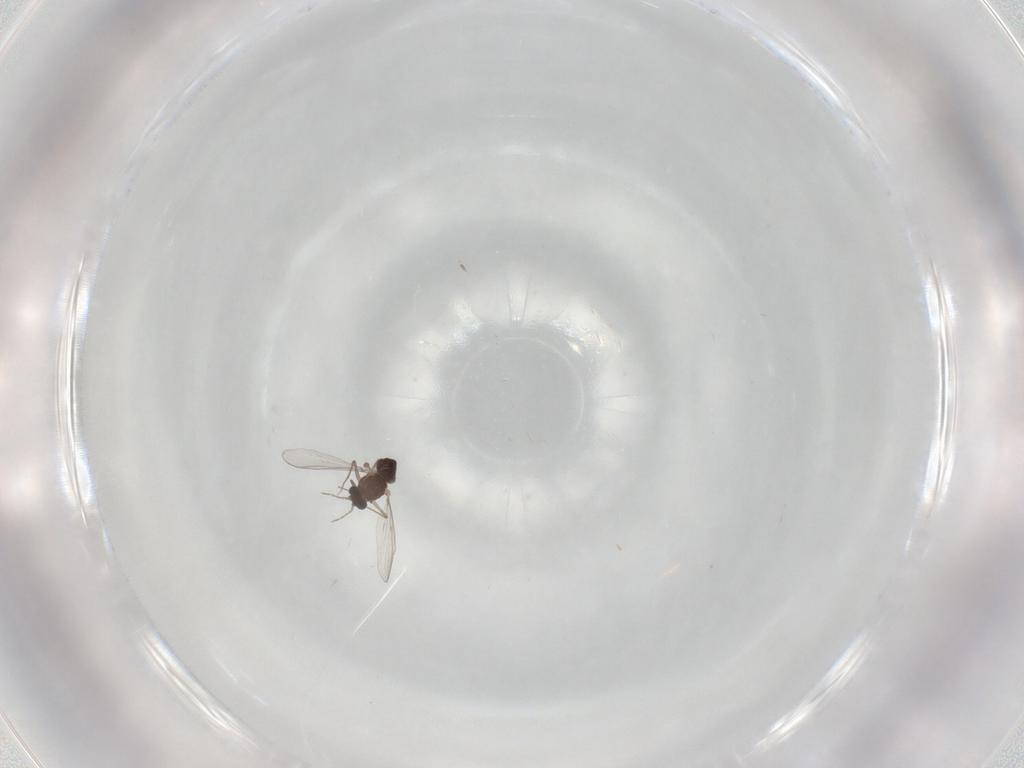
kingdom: Animalia
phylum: Arthropoda
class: Insecta
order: Diptera
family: Chironomidae
